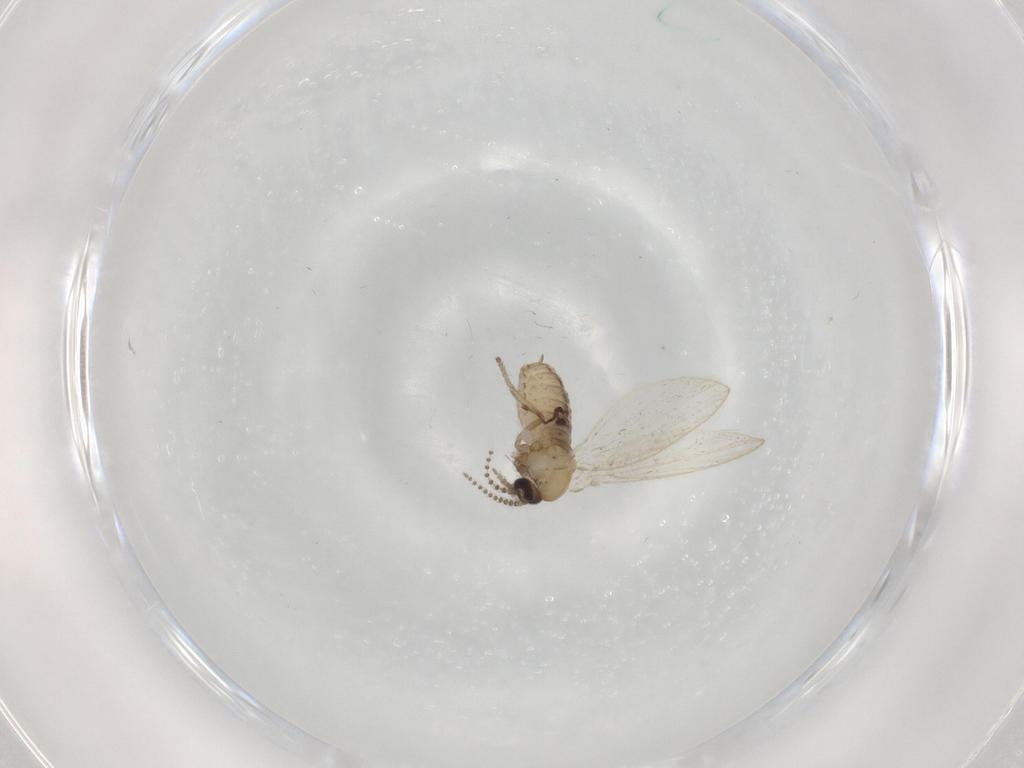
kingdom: Animalia
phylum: Arthropoda
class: Insecta
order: Diptera
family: Psychodidae
